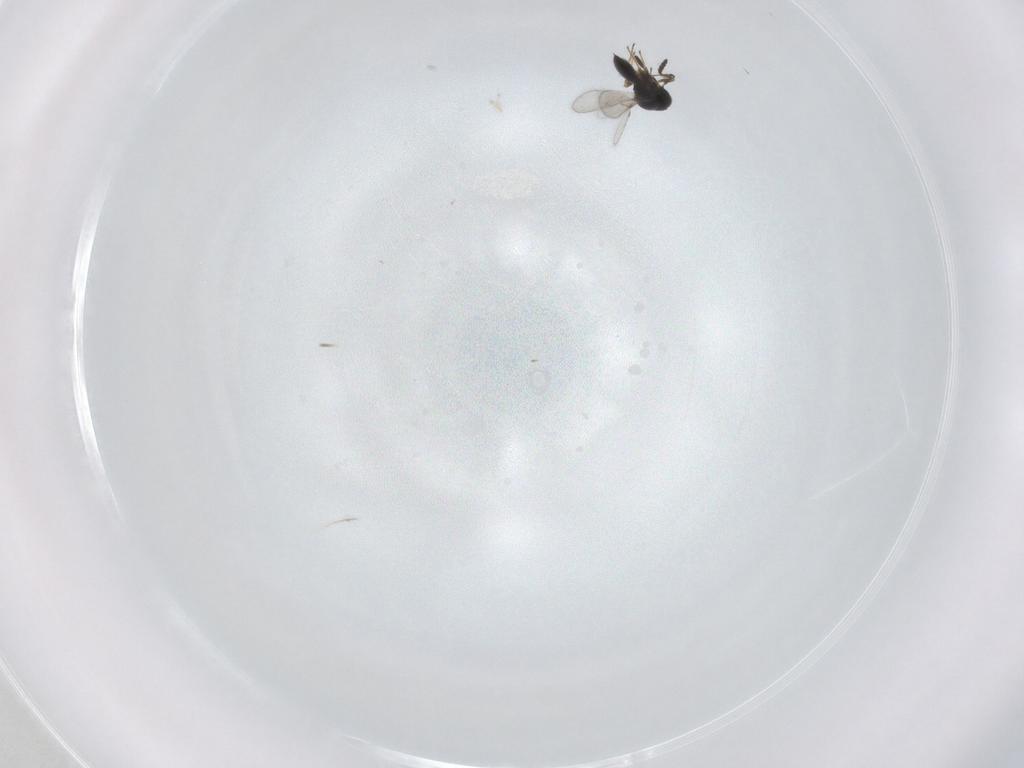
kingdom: Animalia
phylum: Arthropoda
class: Insecta
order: Hymenoptera
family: Scelionidae
